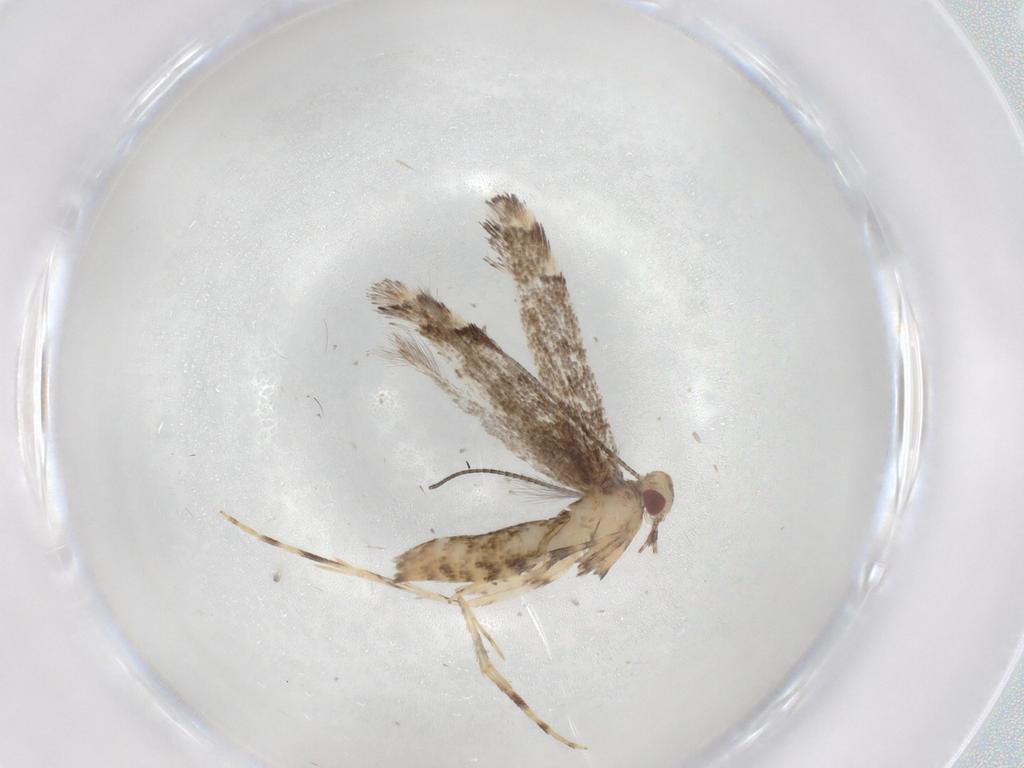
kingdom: Animalia
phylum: Arthropoda
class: Insecta
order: Lepidoptera
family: Gracillariidae
